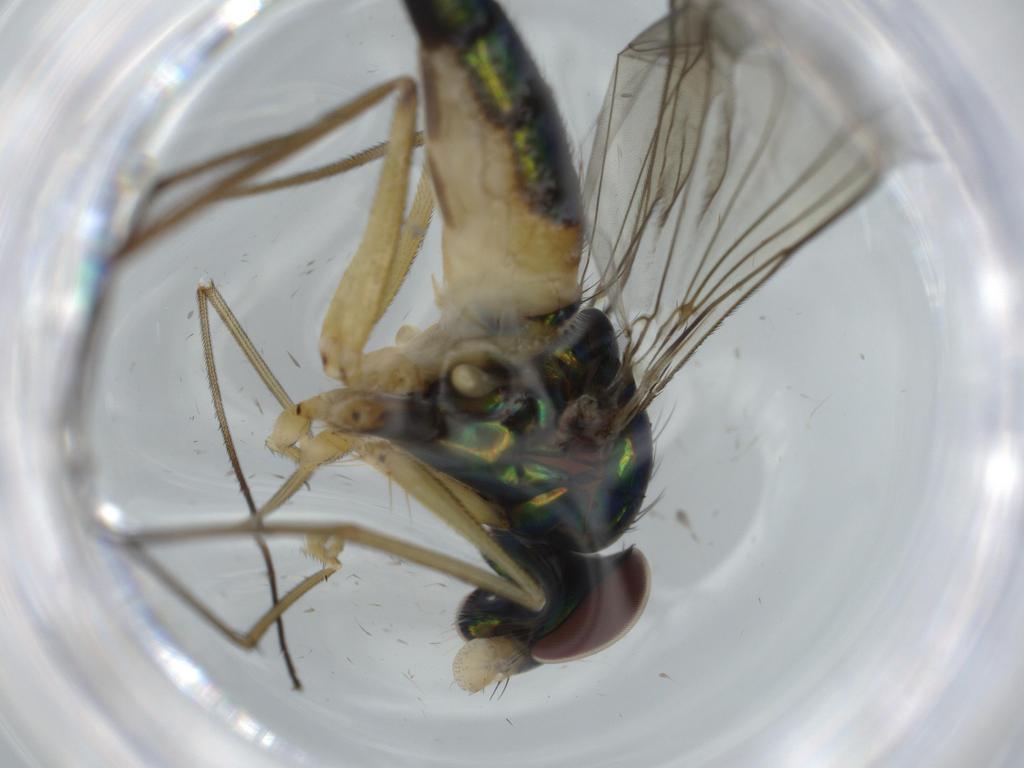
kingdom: Animalia
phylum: Arthropoda
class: Insecta
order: Diptera
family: Dolichopodidae
